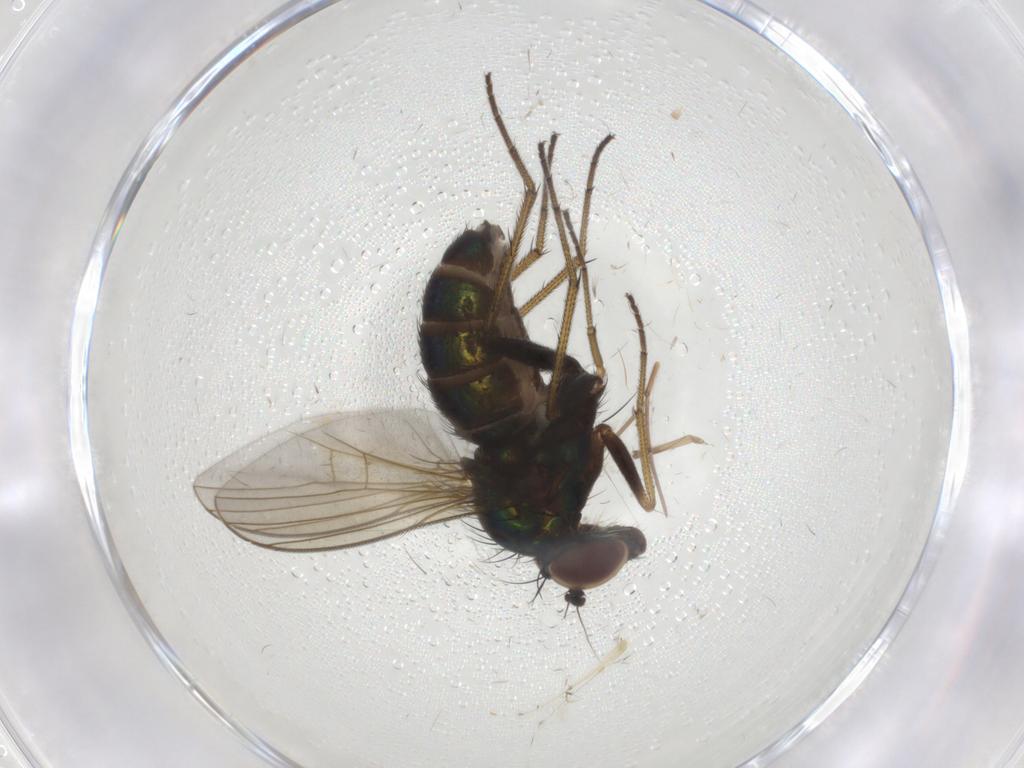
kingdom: Animalia
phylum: Arthropoda
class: Insecta
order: Diptera
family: Dolichopodidae
